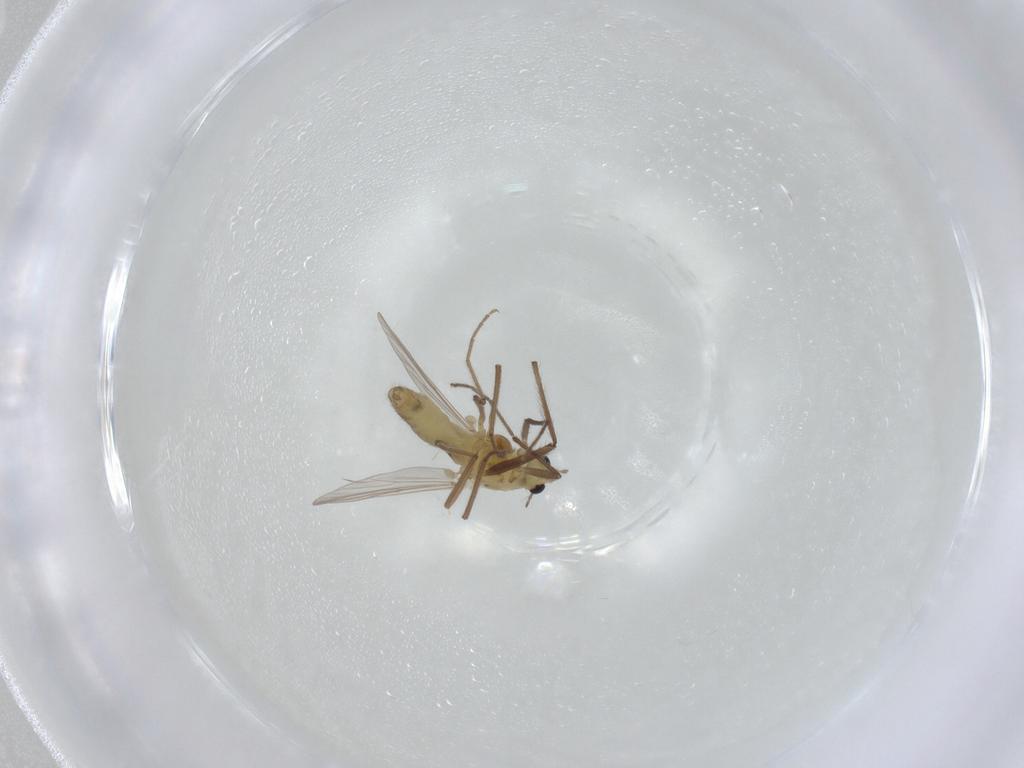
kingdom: Animalia
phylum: Arthropoda
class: Insecta
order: Diptera
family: Chironomidae
